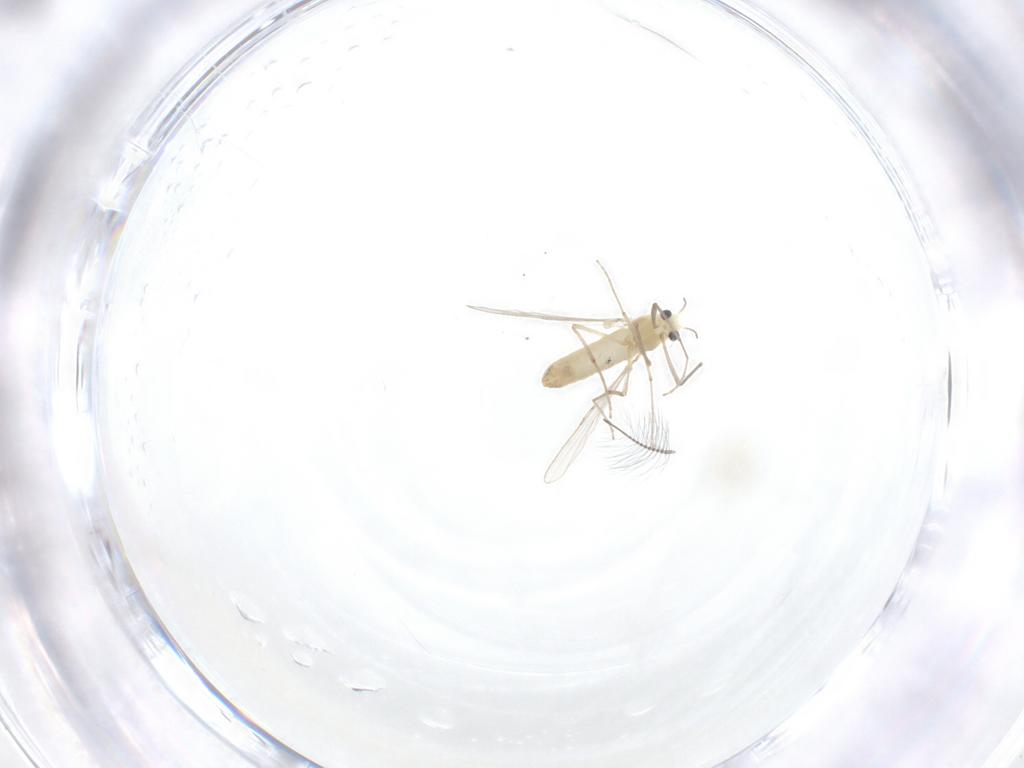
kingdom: Animalia
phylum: Arthropoda
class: Insecta
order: Diptera
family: Chironomidae
